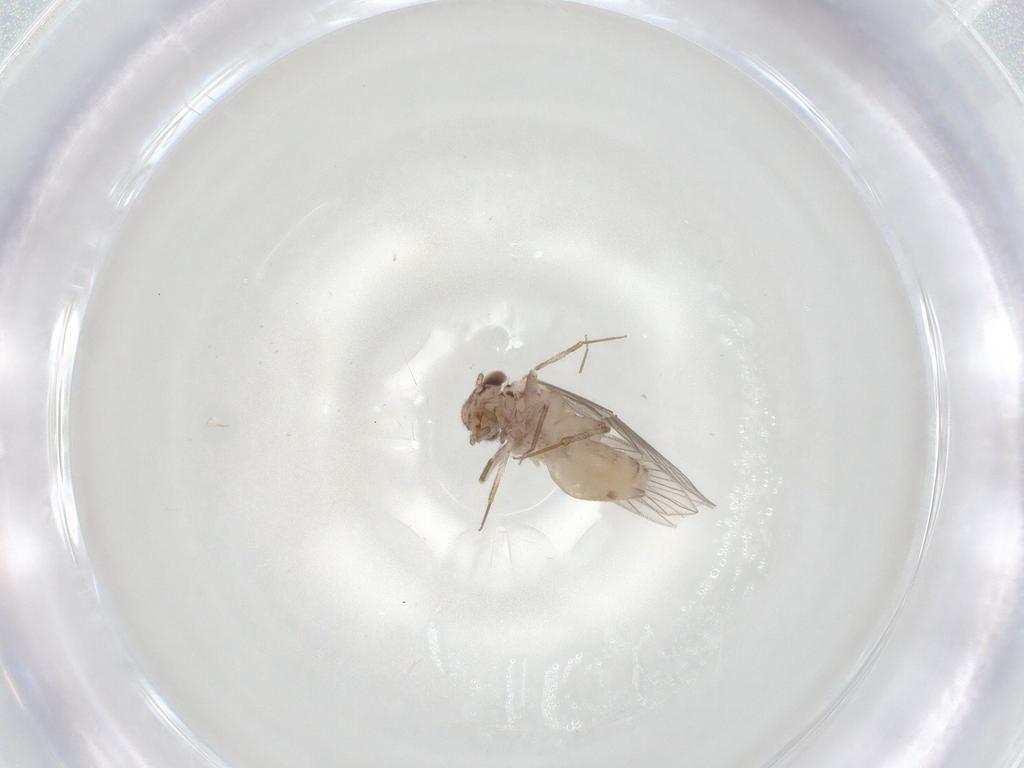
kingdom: Animalia
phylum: Arthropoda
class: Insecta
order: Psocodea
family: Lepidopsocidae
